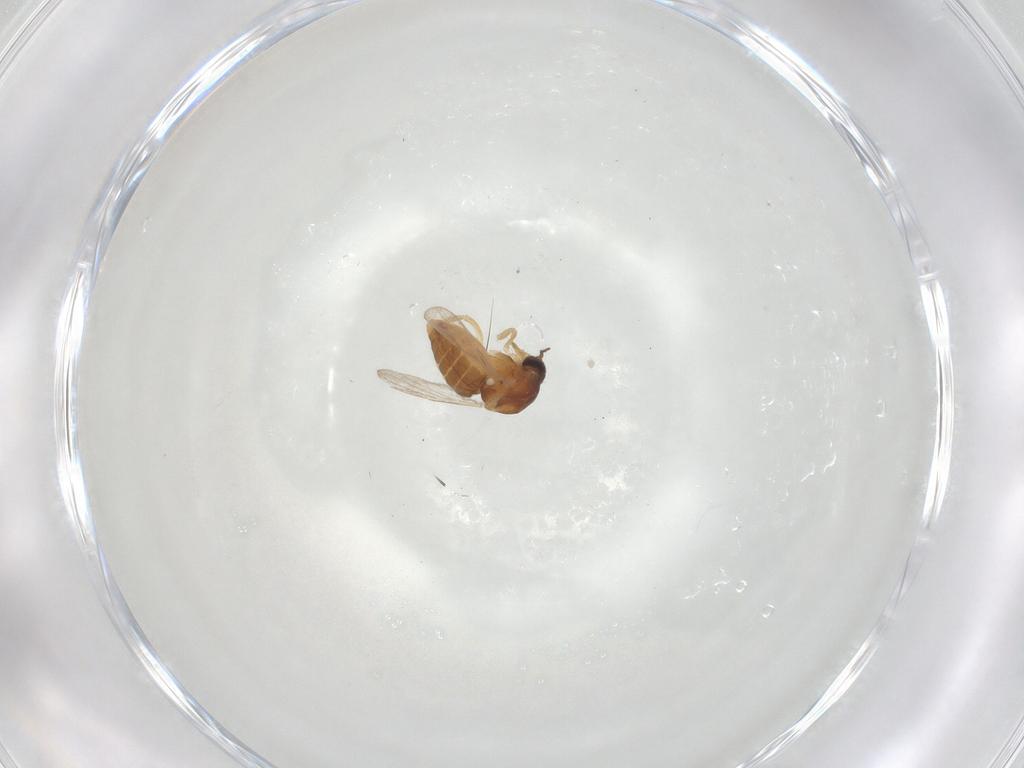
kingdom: Animalia
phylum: Arthropoda
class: Insecta
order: Diptera
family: Ceratopogonidae
